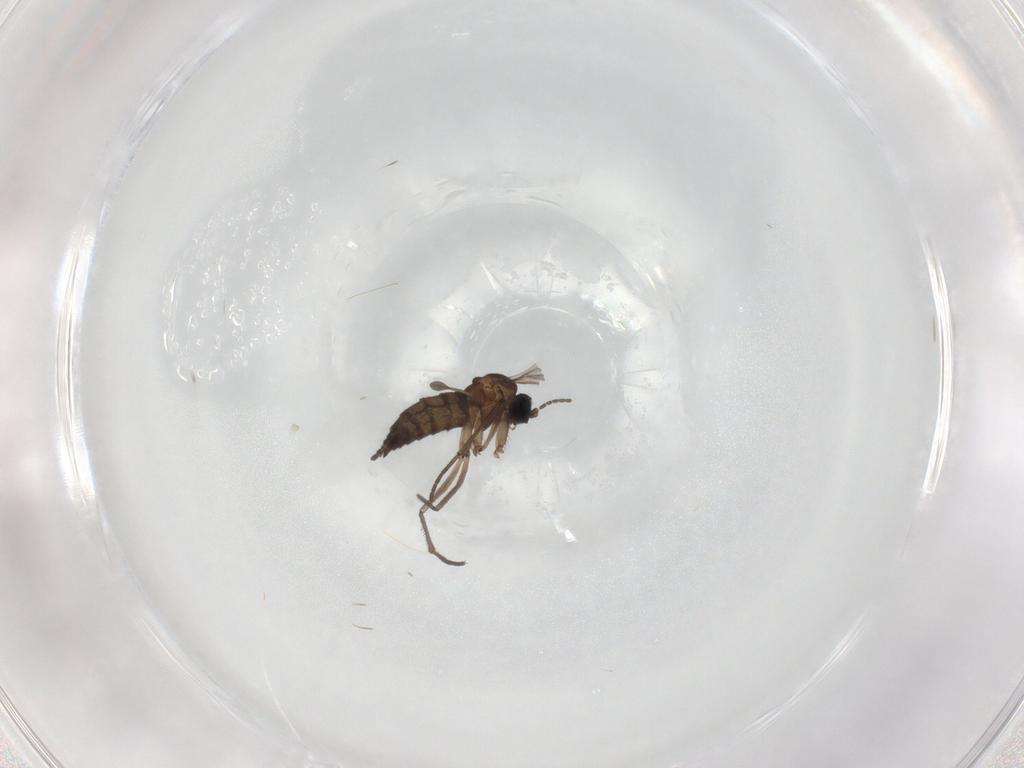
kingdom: Animalia
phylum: Arthropoda
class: Insecta
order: Diptera
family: Sciaridae
